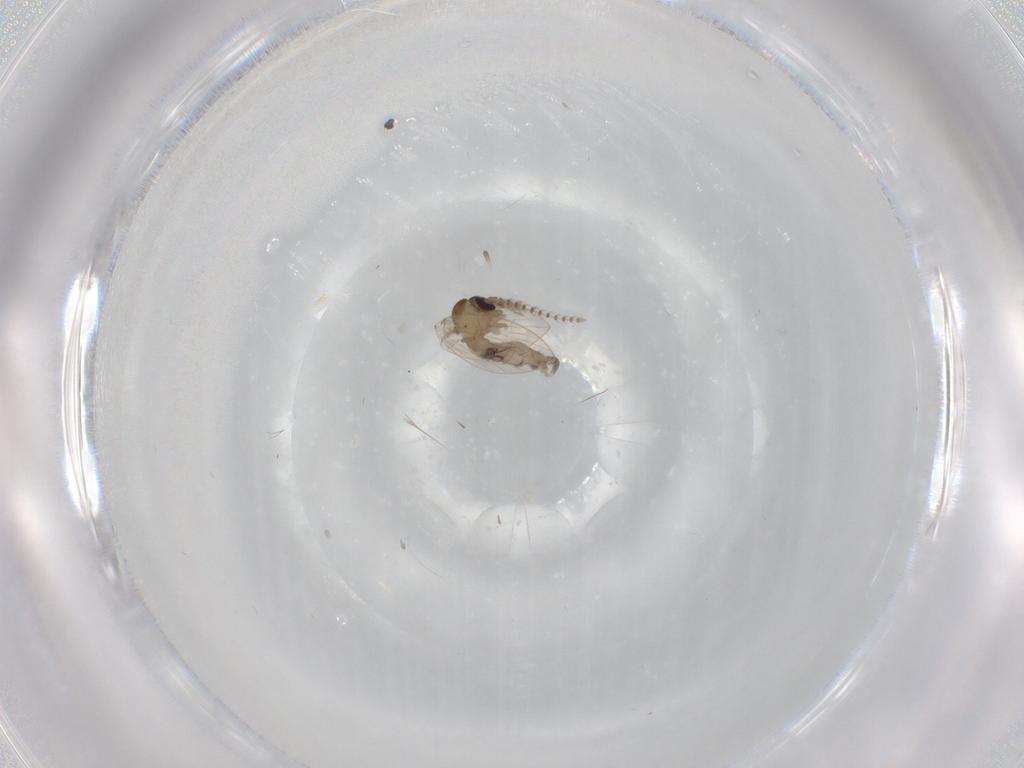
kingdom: Animalia
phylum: Arthropoda
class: Insecta
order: Diptera
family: Psychodidae
